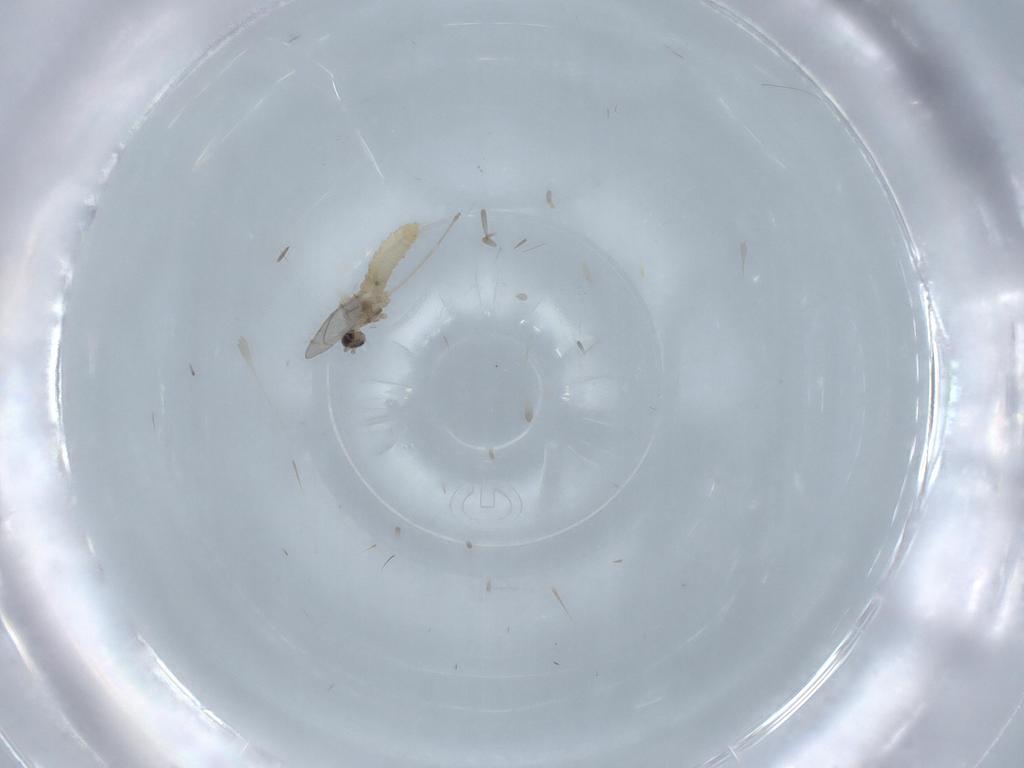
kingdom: Animalia
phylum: Arthropoda
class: Insecta
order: Diptera
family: Cecidomyiidae
